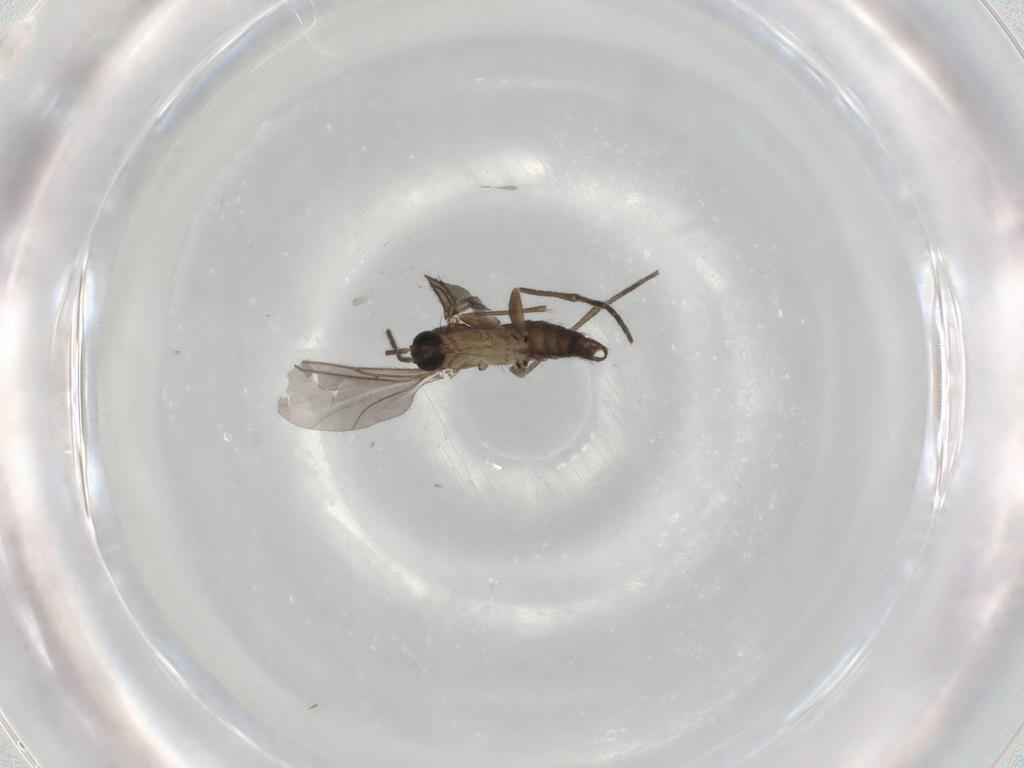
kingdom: Animalia
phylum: Arthropoda
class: Insecta
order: Diptera
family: Sciaridae
